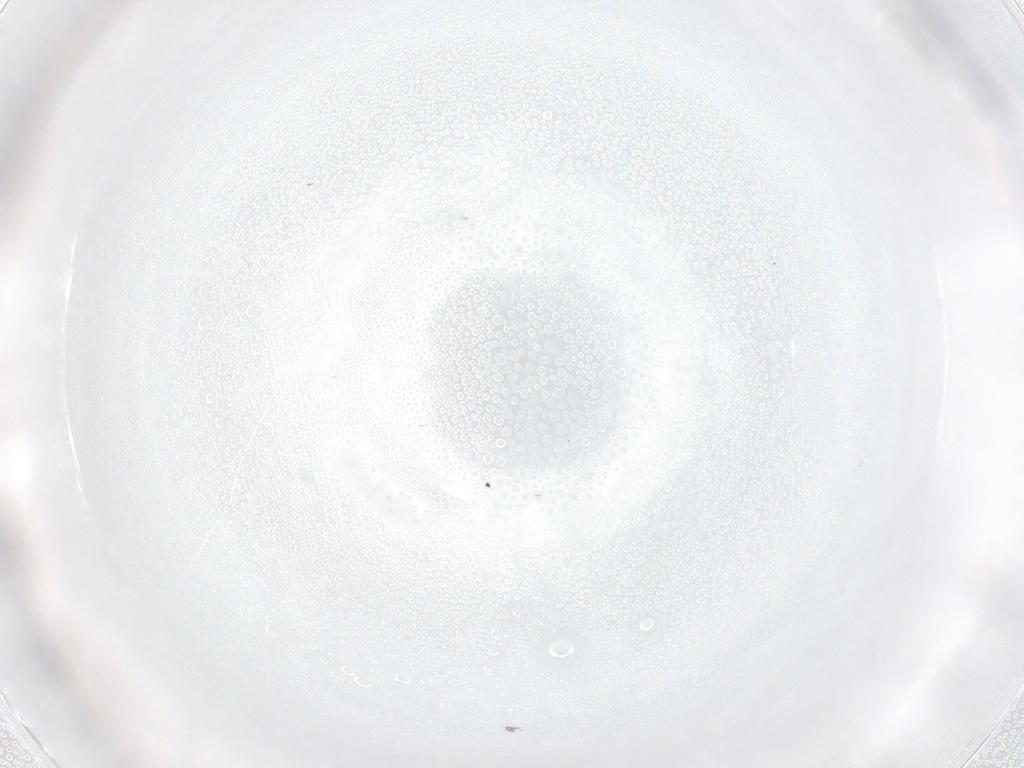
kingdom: Animalia
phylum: Arthropoda
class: Arachnida
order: Mesostigmata
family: Phytoseiidae
